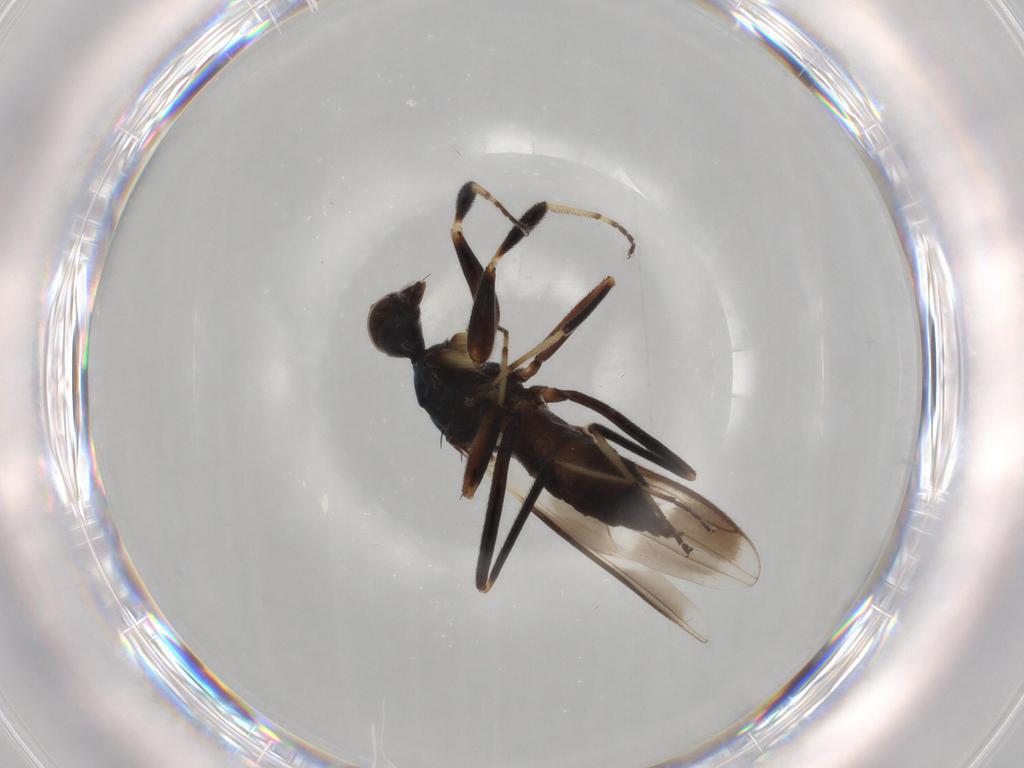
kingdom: Animalia
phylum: Arthropoda
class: Insecta
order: Diptera
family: Hybotidae
